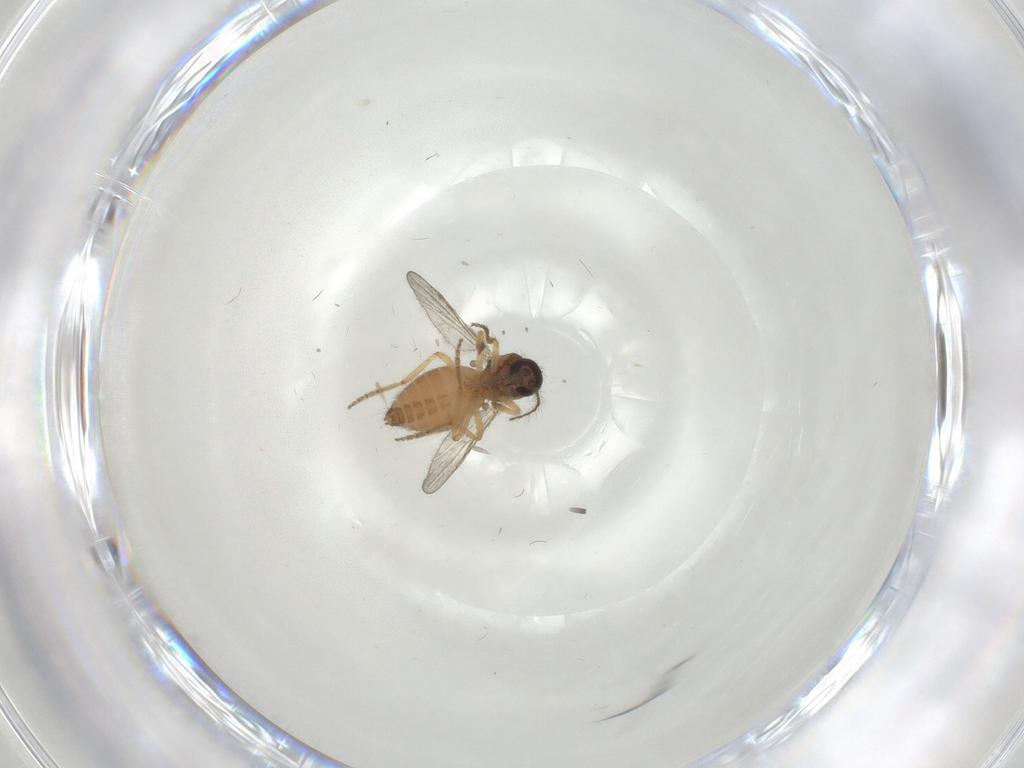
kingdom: Animalia
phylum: Arthropoda
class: Insecta
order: Diptera
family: Ceratopogonidae
